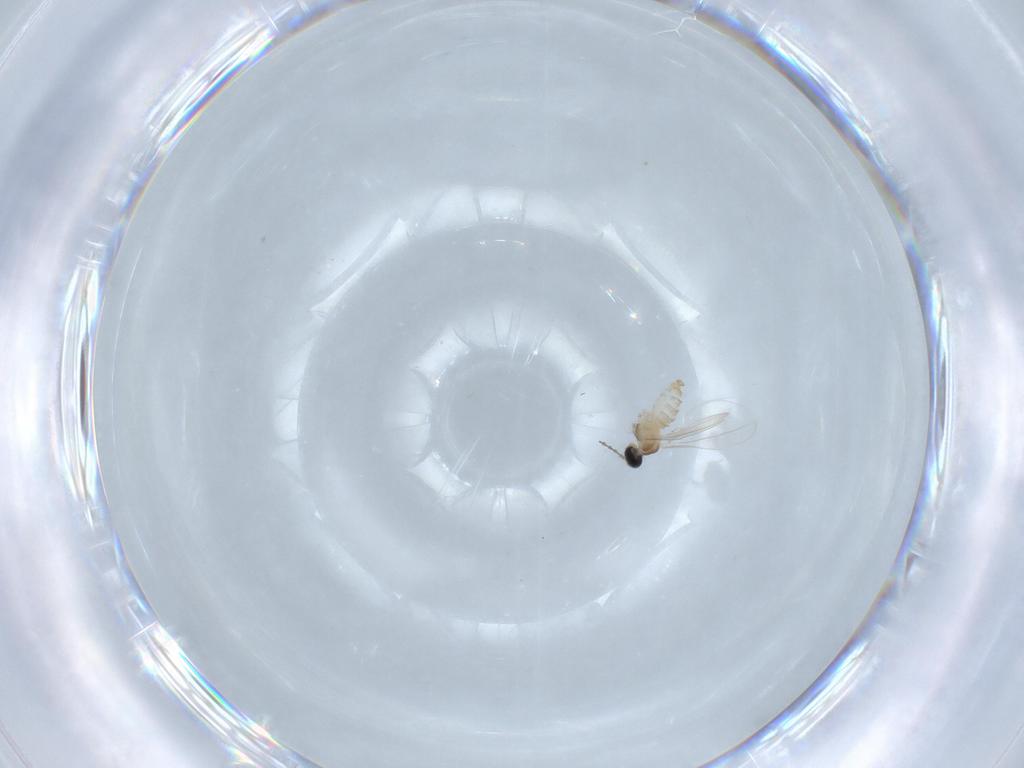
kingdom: Animalia
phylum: Arthropoda
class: Insecta
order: Diptera
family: Cecidomyiidae
